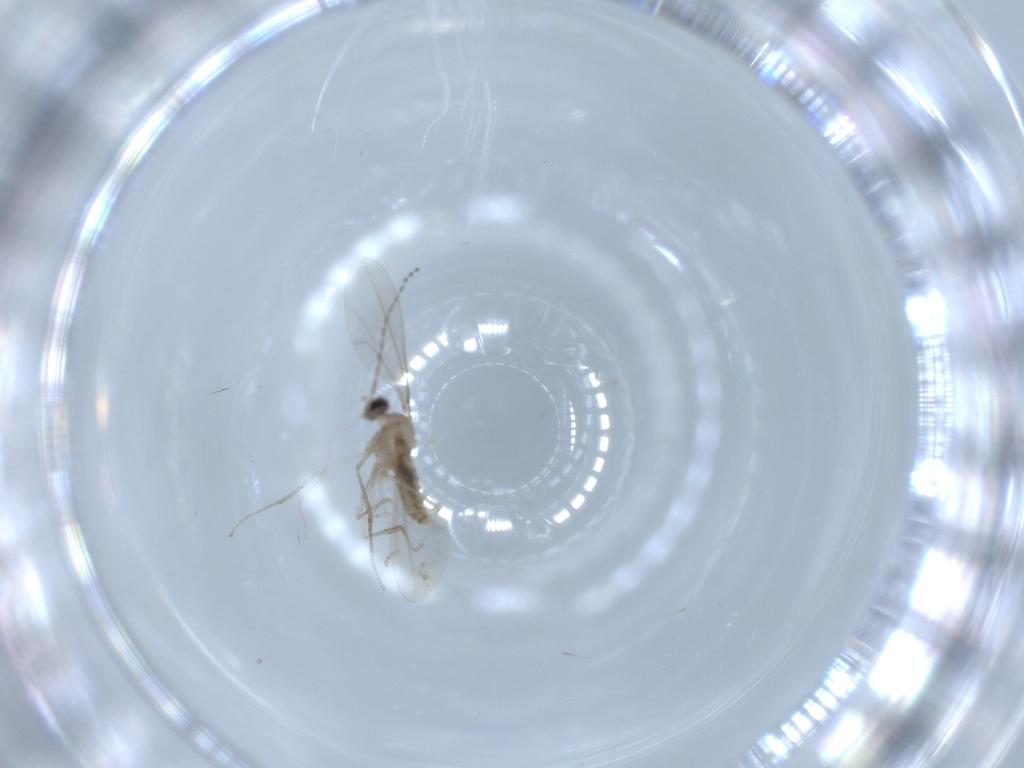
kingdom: Animalia
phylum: Arthropoda
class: Insecta
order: Diptera
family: Cecidomyiidae
